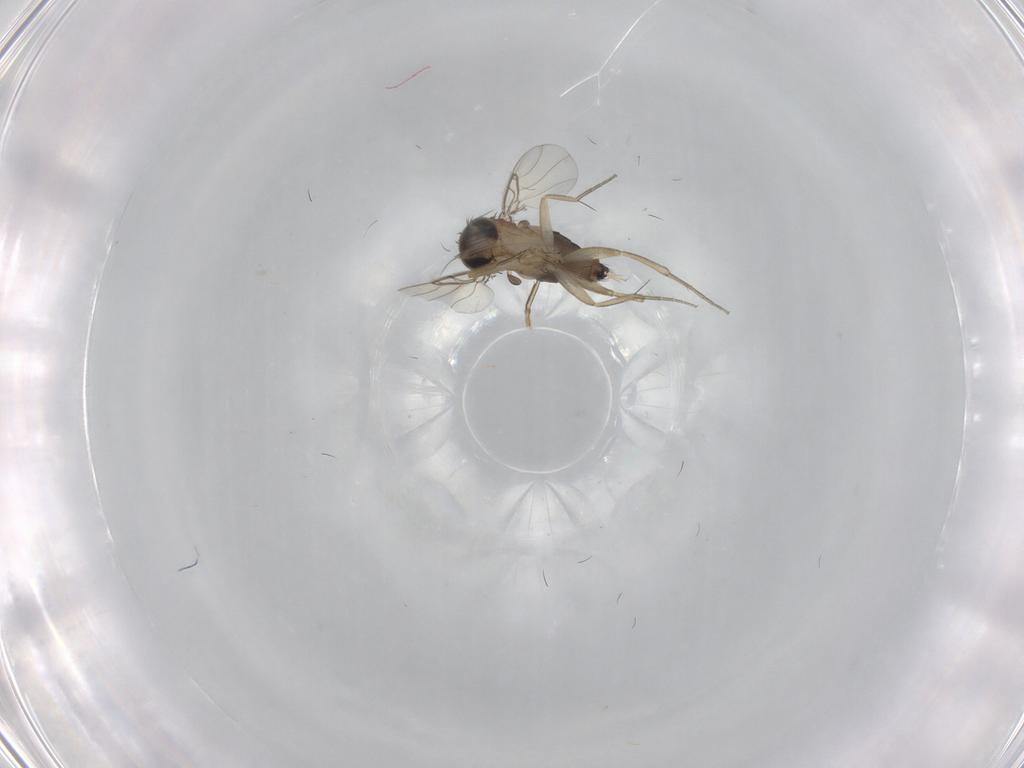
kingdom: Animalia
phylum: Arthropoda
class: Insecta
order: Diptera
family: Phoridae
